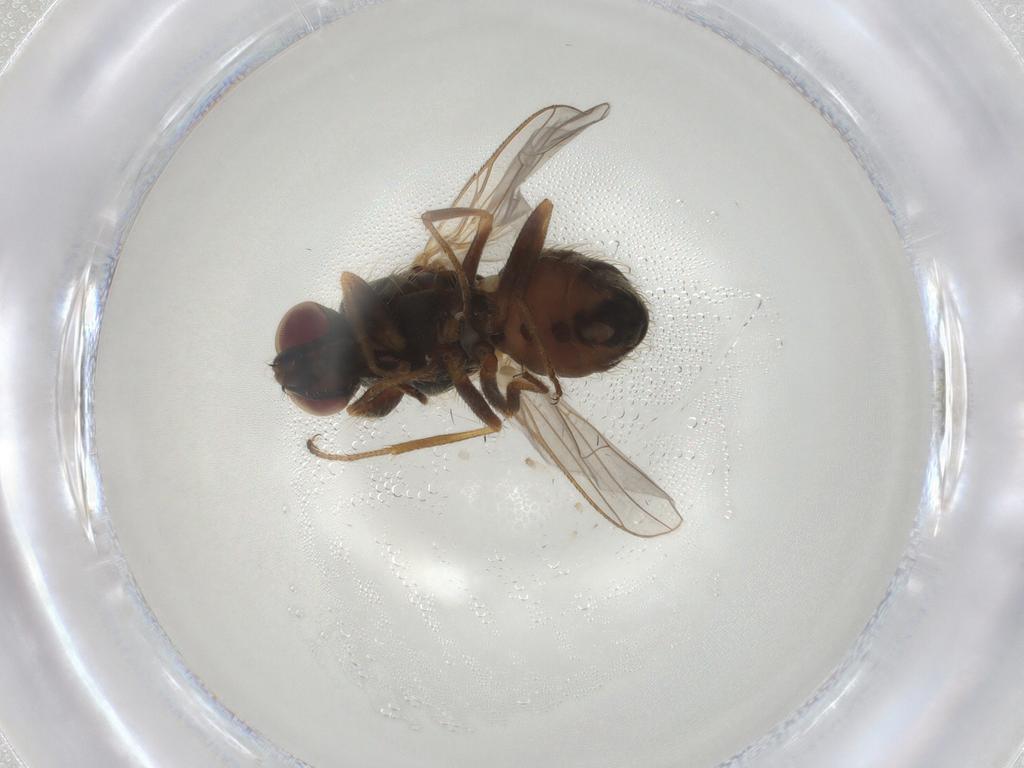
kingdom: Animalia
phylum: Arthropoda
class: Insecta
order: Diptera
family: Muscidae
